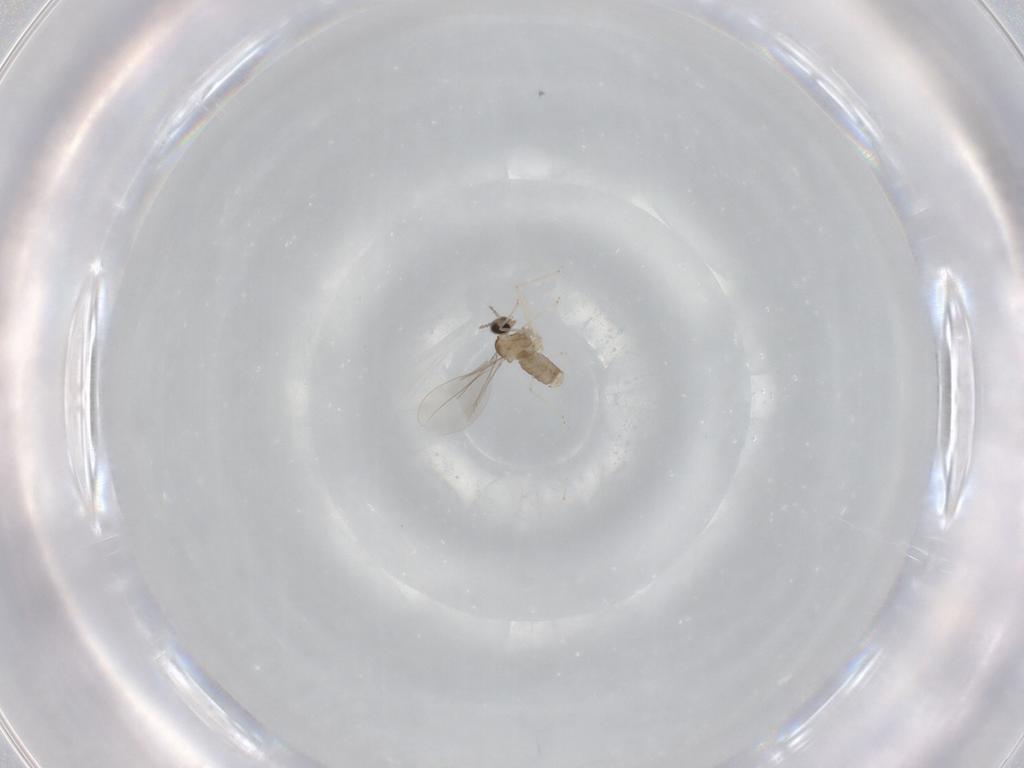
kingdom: Animalia
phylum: Arthropoda
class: Insecta
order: Diptera
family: Cecidomyiidae
